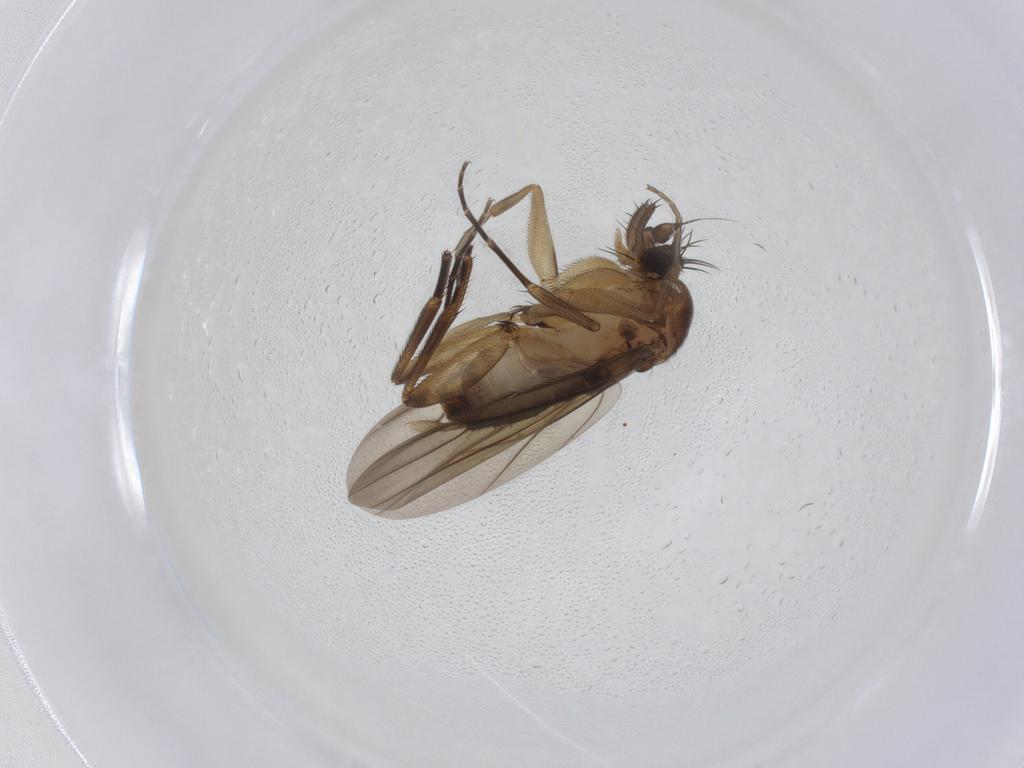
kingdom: Animalia
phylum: Arthropoda
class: Insecta
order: Diptera
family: Phoridae
